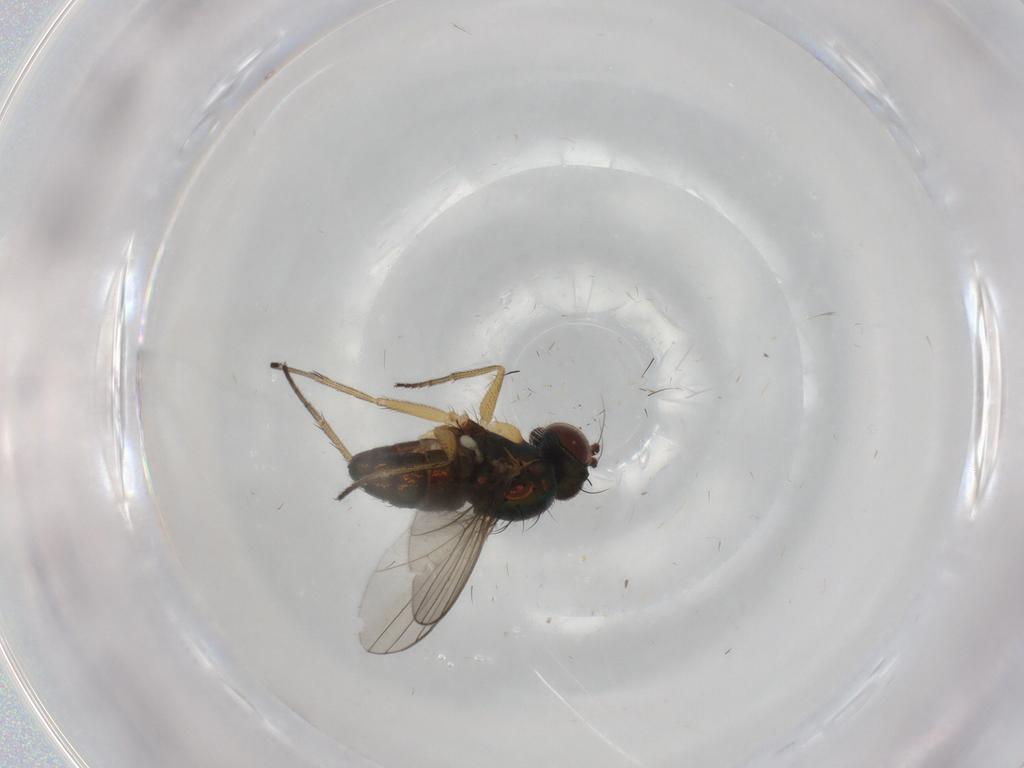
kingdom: Animalia
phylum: Arthropoda
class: Insecta
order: Diptera
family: Dolichopodidae
